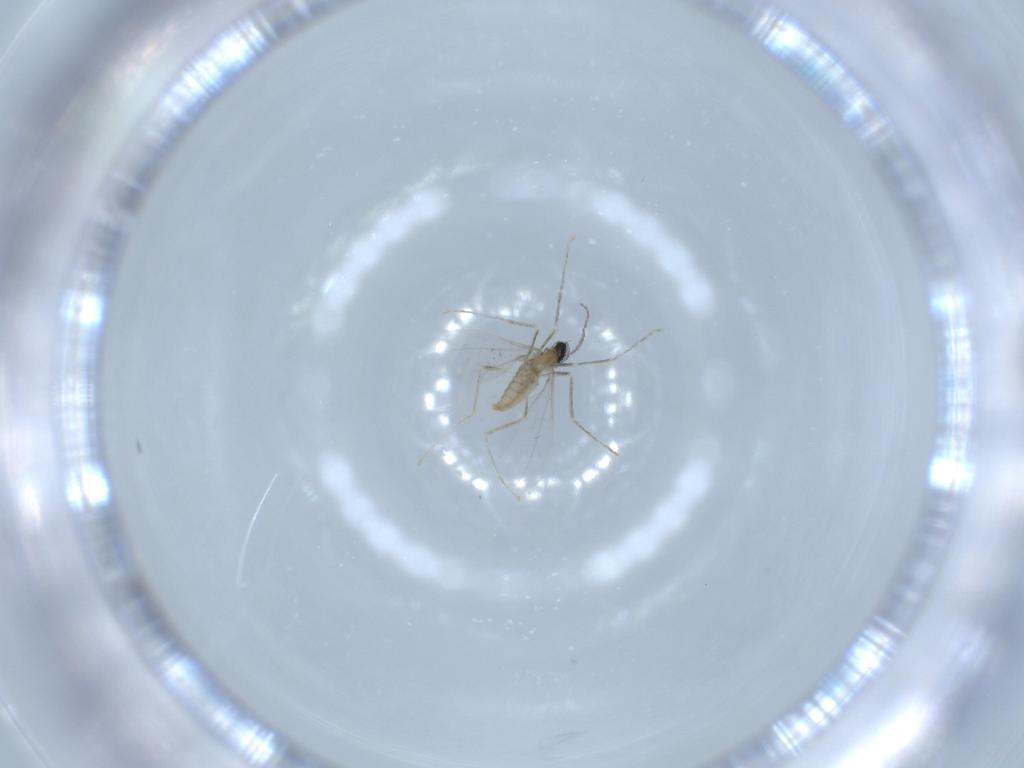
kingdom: Animalia
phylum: Arthropoda
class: Insecta
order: Diptera
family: Cecidomyiidae
